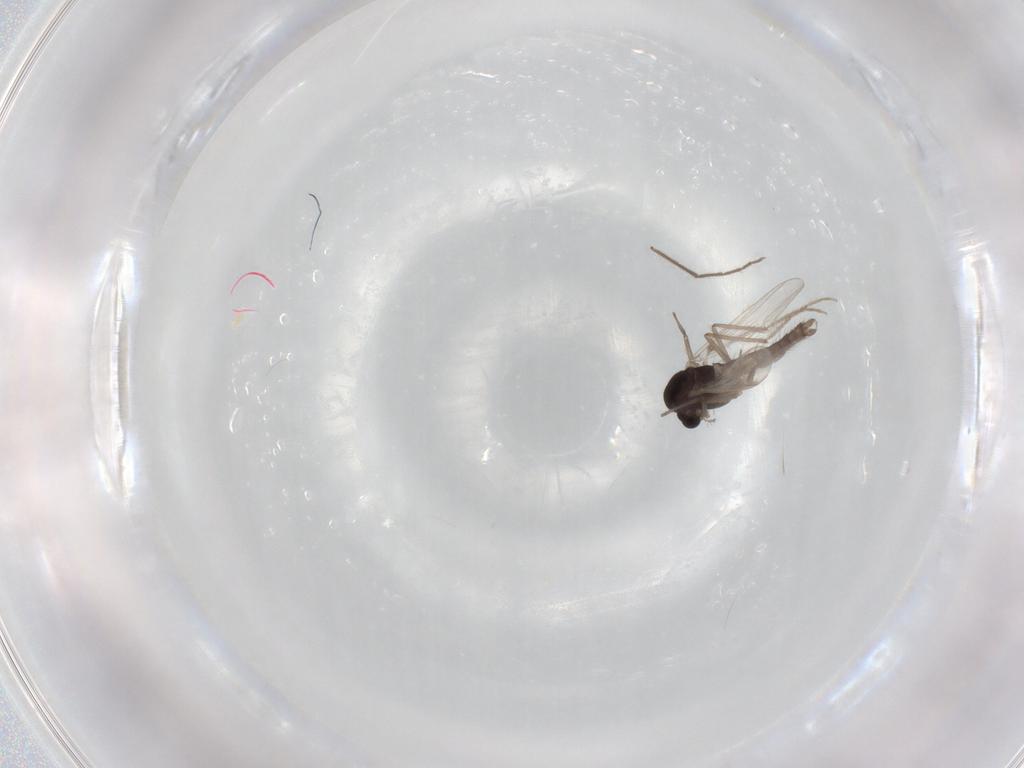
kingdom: Animalia
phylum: Arthropoda
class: Insecta
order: Diptera
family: Chironomidae
